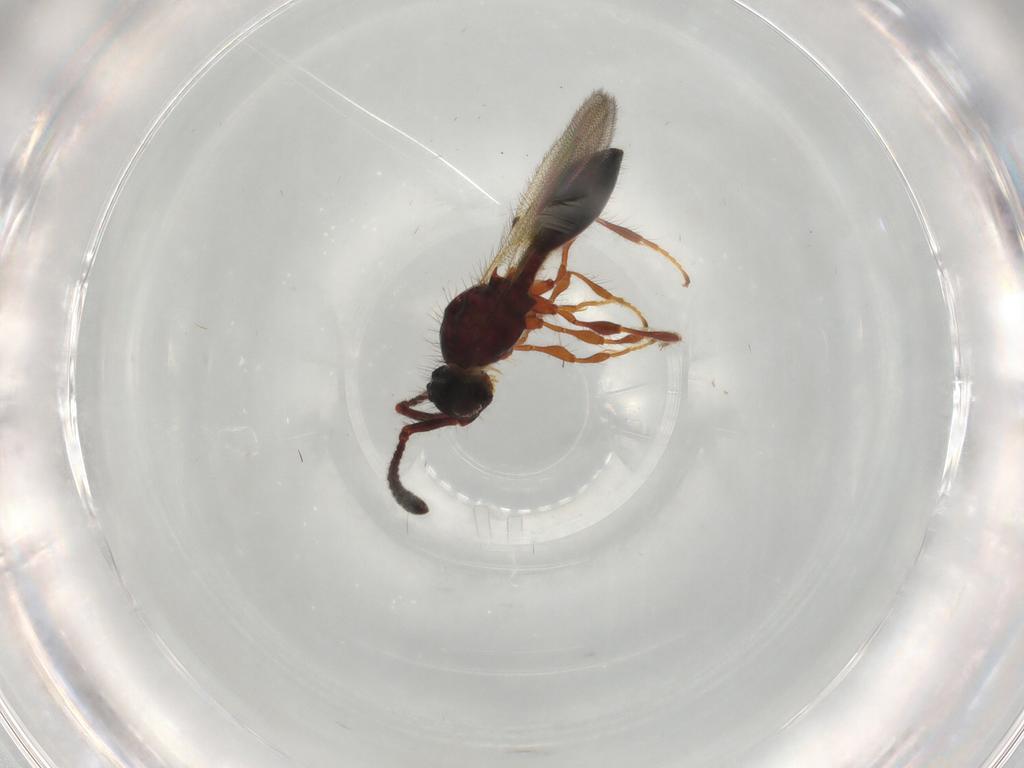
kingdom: Animalia
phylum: Arthropoda
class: Insecta
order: Hymenoptera
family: Diapriidae
